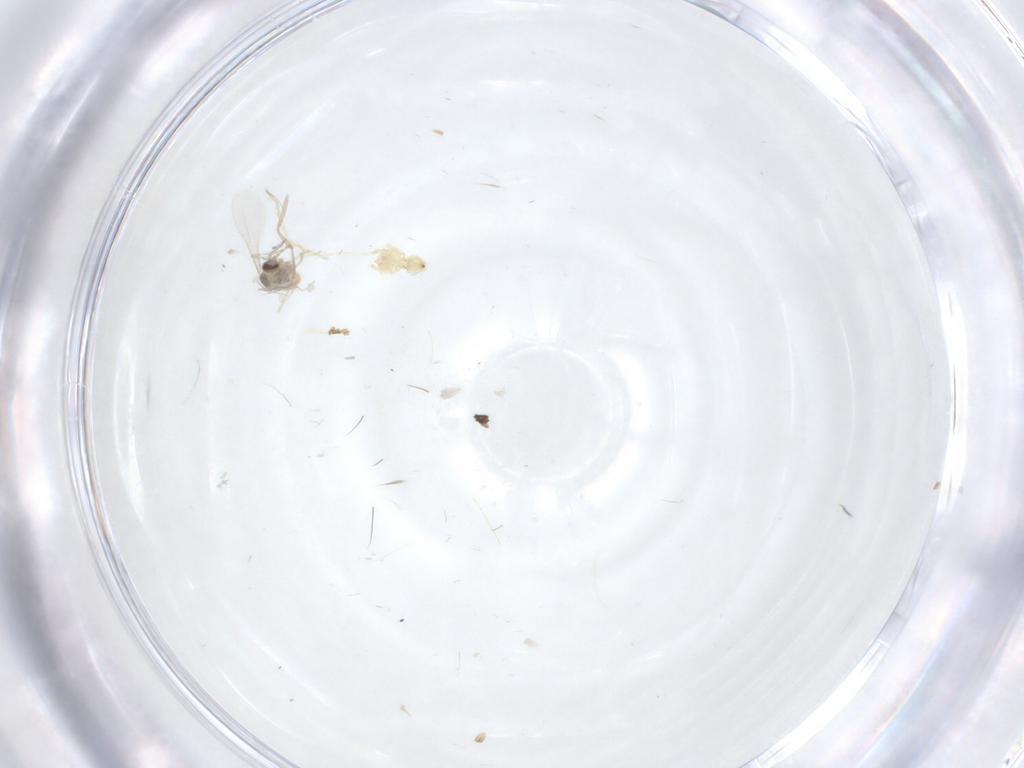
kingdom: Animalia
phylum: Arthropoda
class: Insecta
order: Diptera
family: Cecidomyiidae
